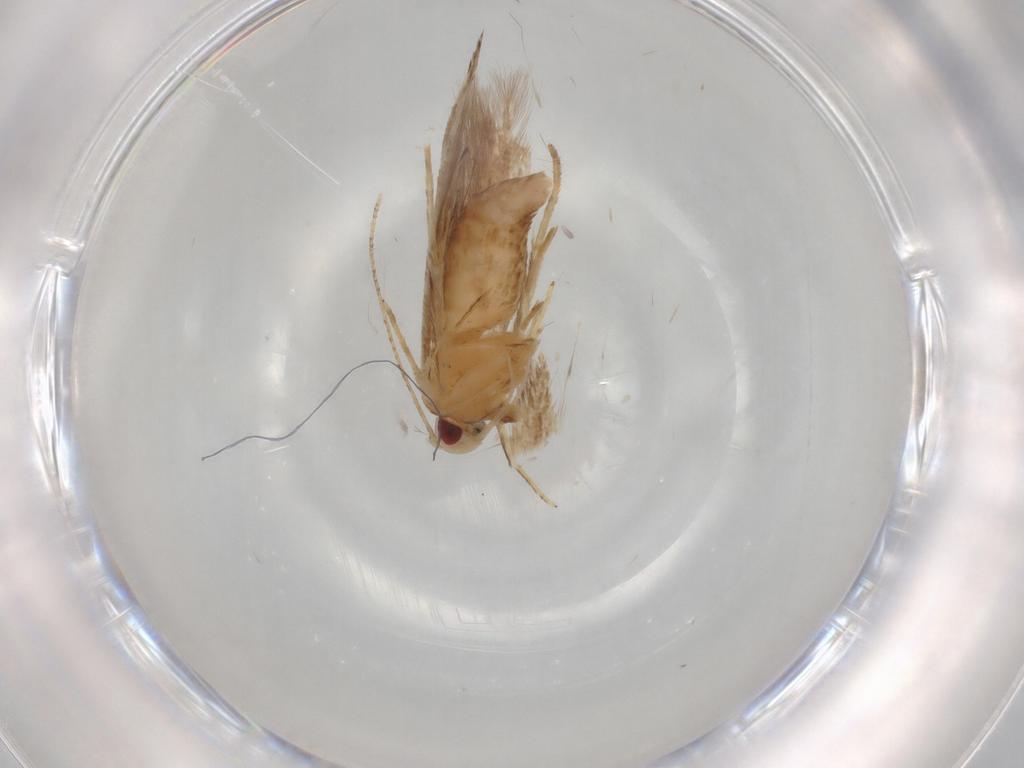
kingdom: Animalia
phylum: Arthropoda
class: Insecta
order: Lepidoptera
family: Cosmopterigidae
